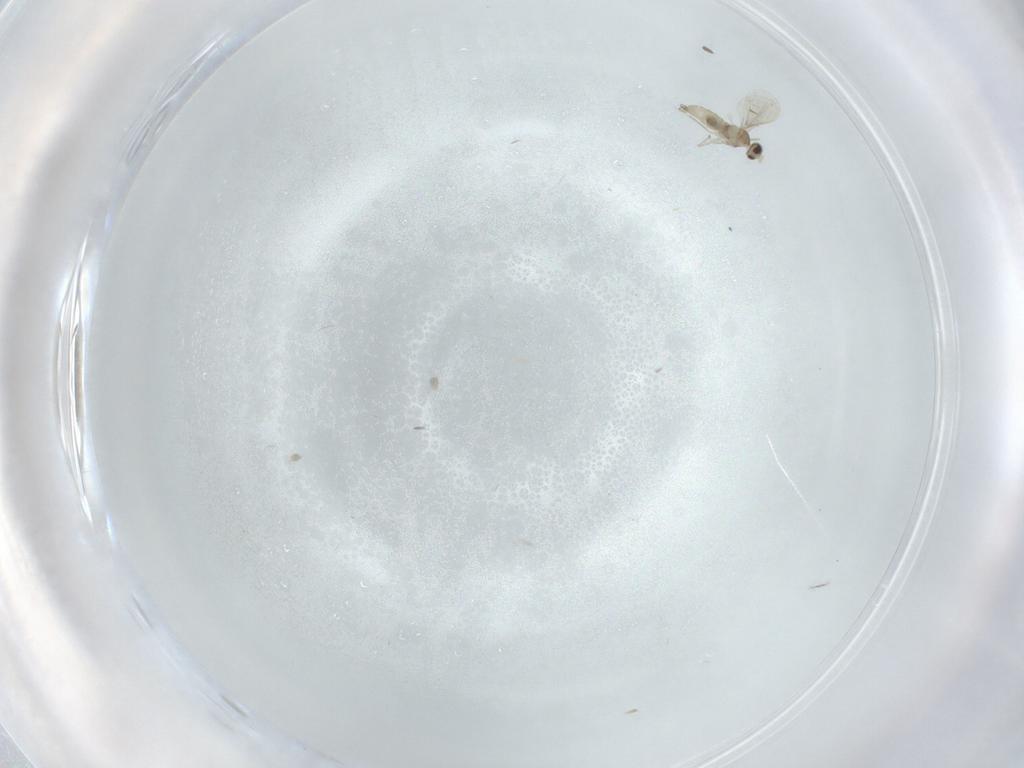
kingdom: Animalia
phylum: Arthropoda
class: Insecta
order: Diptera
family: Cecidomyiidae
